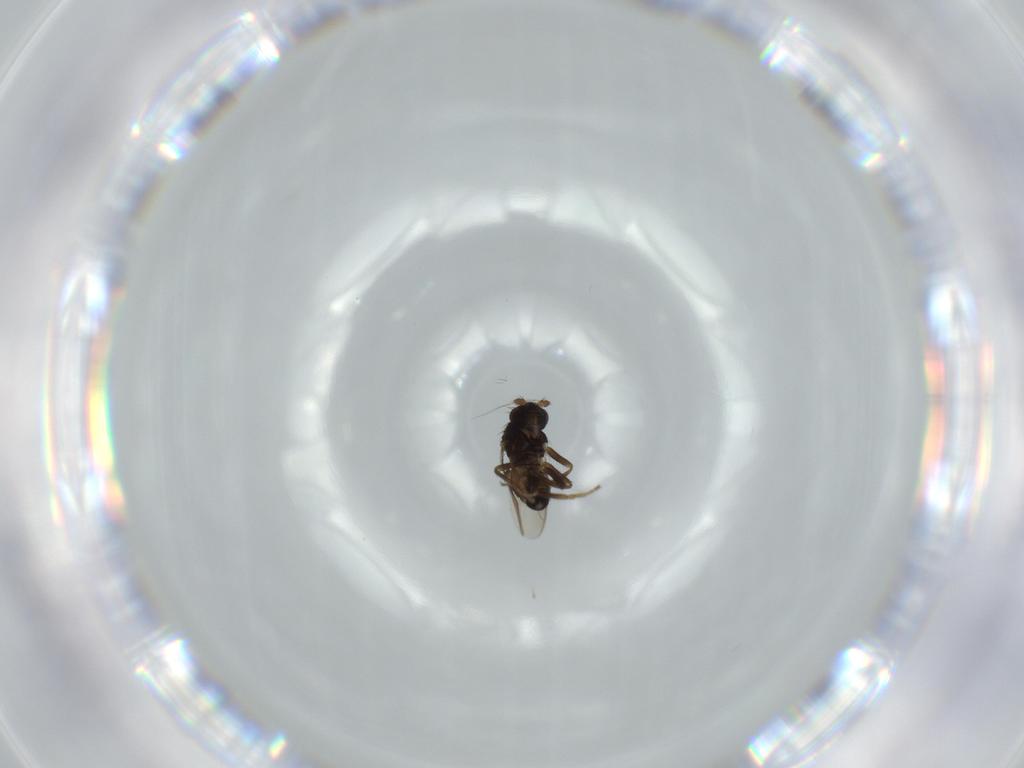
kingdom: Animalia
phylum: Arthropoda
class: Insecta
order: Diptera
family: Sphaeroceridae
